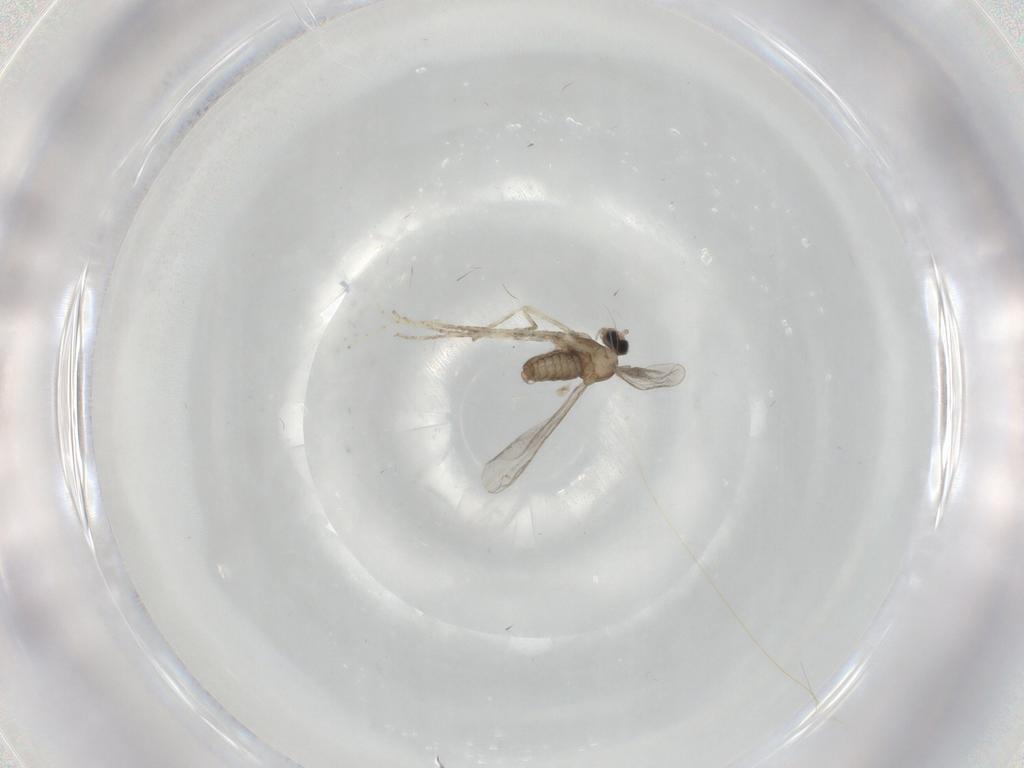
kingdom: Animalia
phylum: Arthropoda
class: Insecta
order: Diptera
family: Cecidomyiidae
